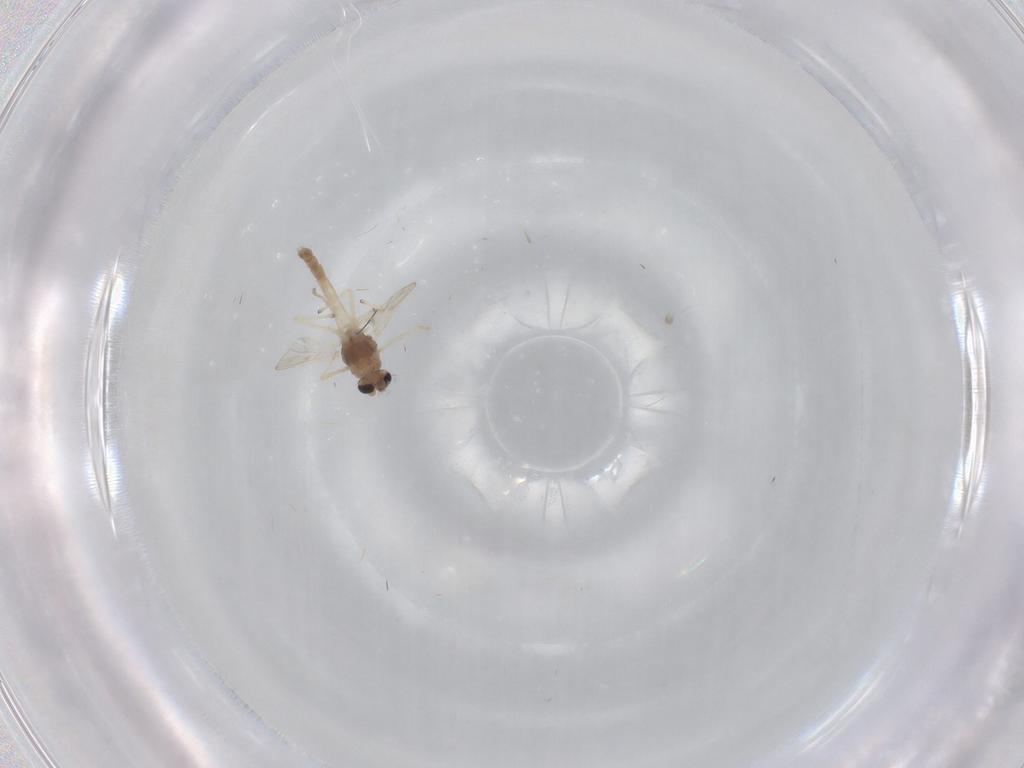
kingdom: Animalia
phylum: Arthropoda
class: Insecta
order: Diptera
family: Chironomidae
